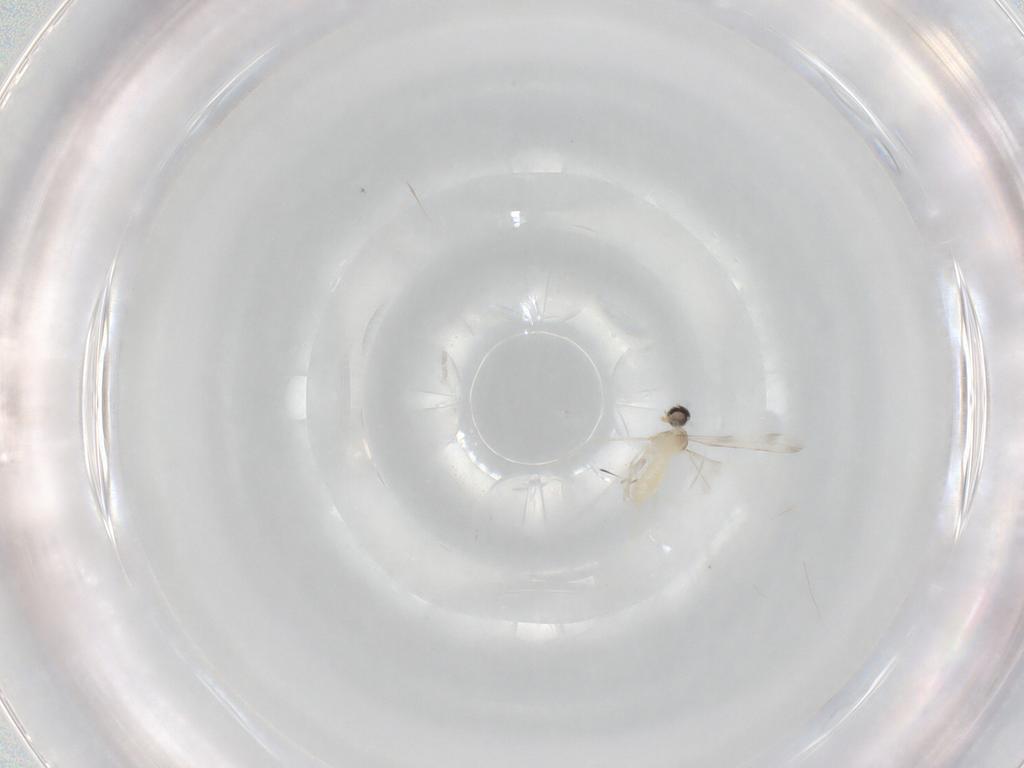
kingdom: Animalia
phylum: Arthropoda
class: Insecta
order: Diptera
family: Cecidomyiidae
